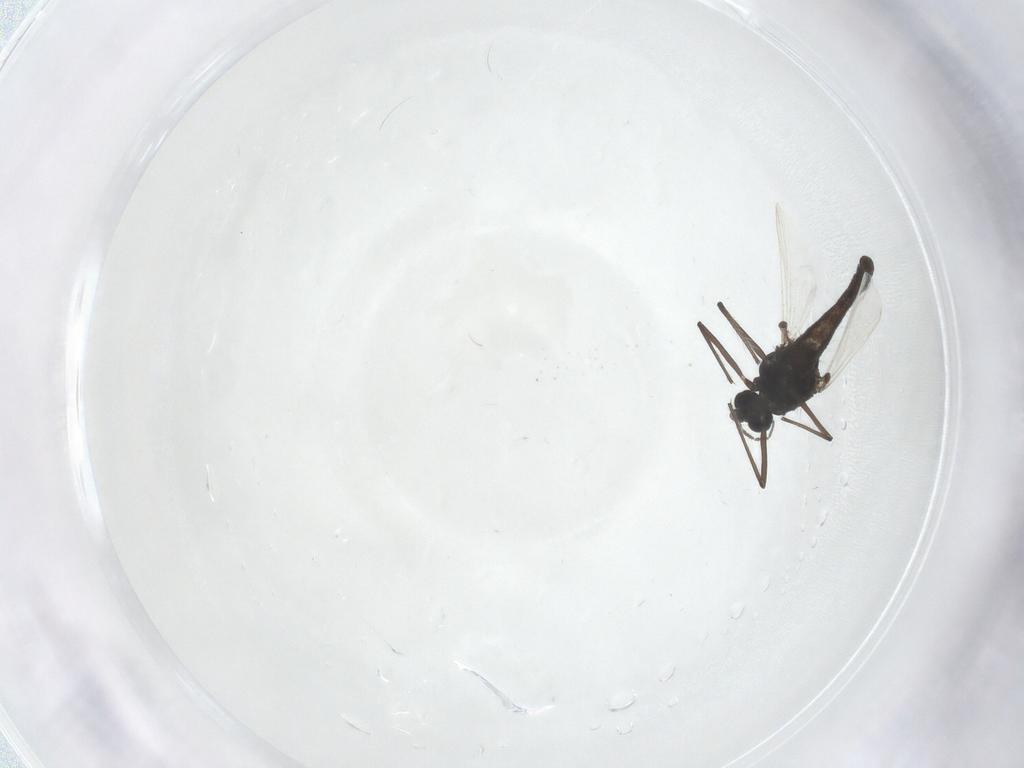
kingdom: Animalia
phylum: Arthropoda
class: Insecta
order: Diptera
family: Chironomidae
